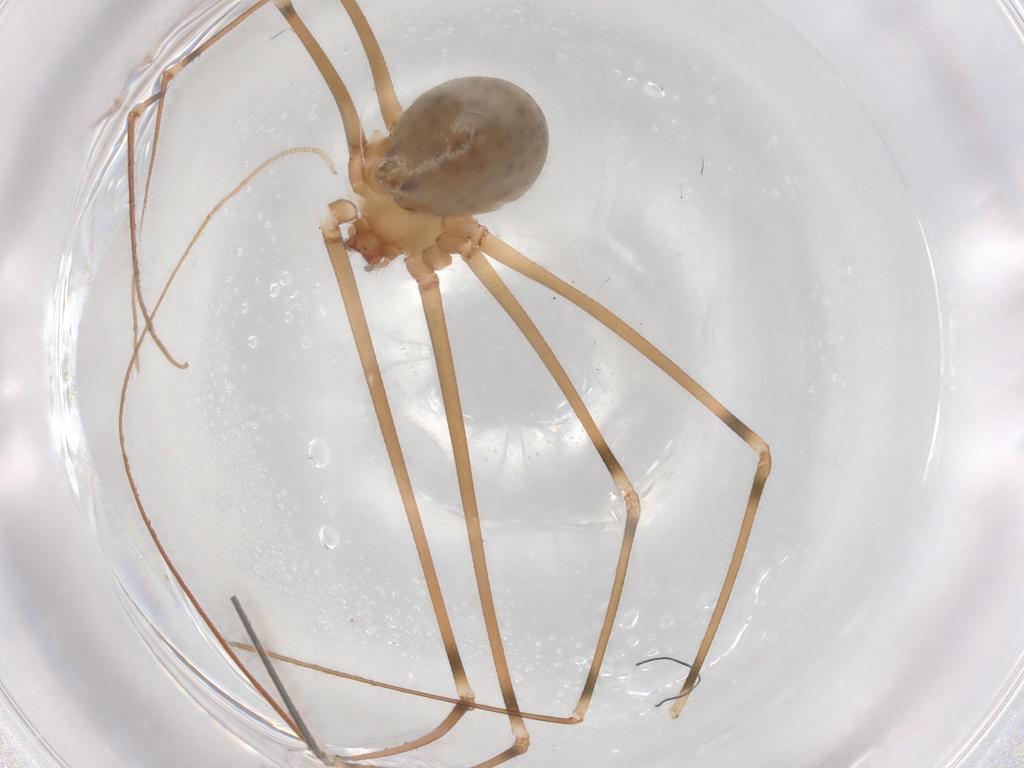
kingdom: Animalia
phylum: Arthropoda
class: Arachnida
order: Araneae
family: Pholcidae
